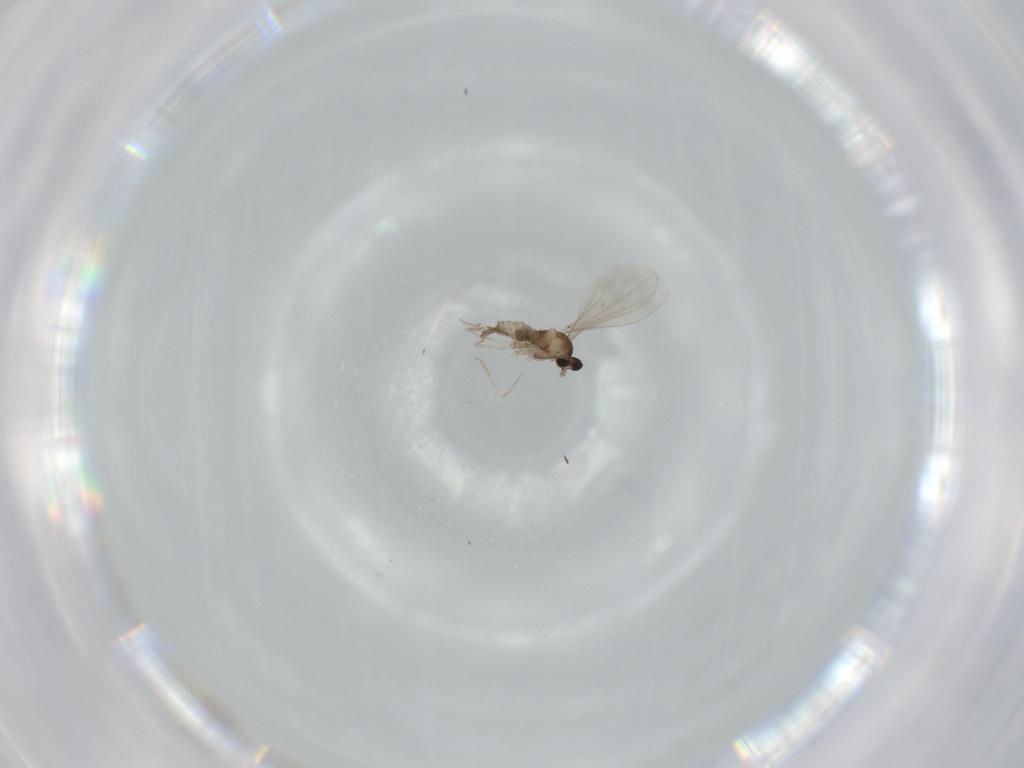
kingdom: Animalia
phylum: Arthropoda
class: Insecta
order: Diptera
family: Cecidomyiidae
